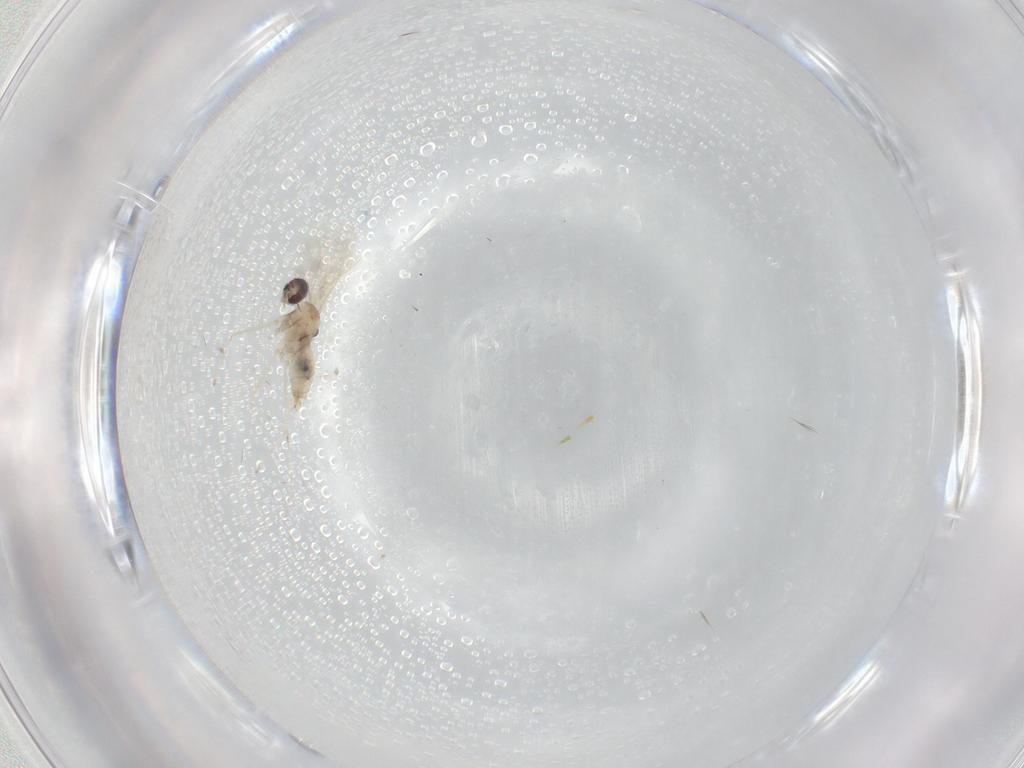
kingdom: Animalia
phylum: Arthropoda
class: Insecta
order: Diptera
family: Cecidomyiidae
